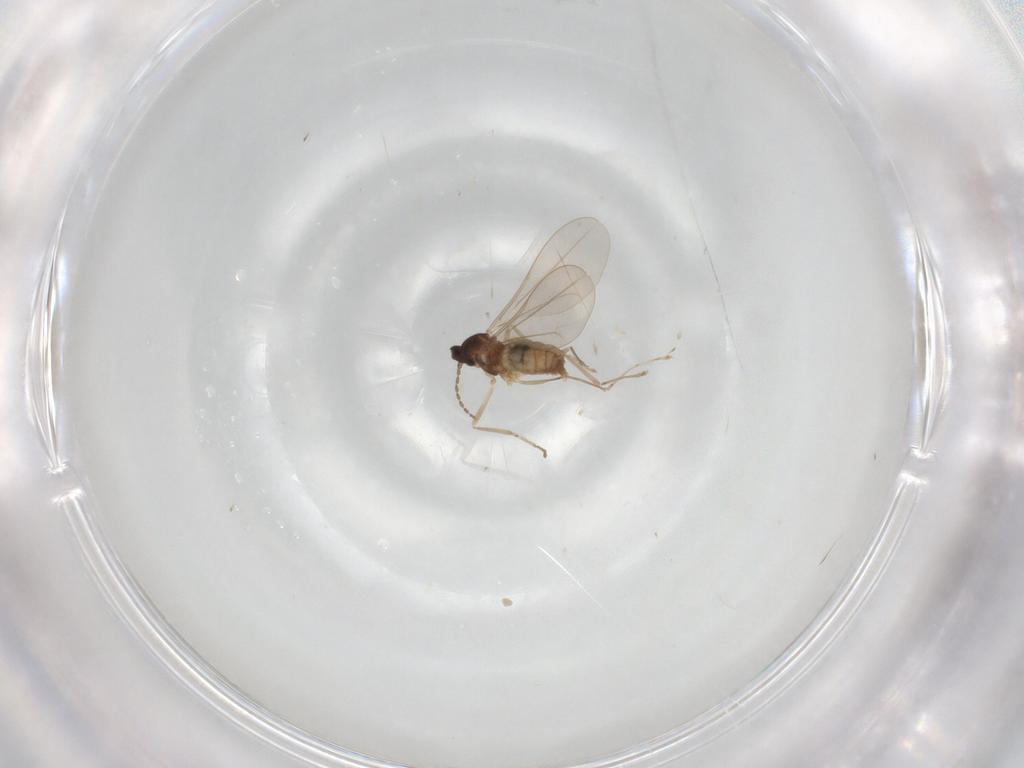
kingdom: Animalia
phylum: Arthropoda
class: Insecta
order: Diptera
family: Cecidomyiidae
